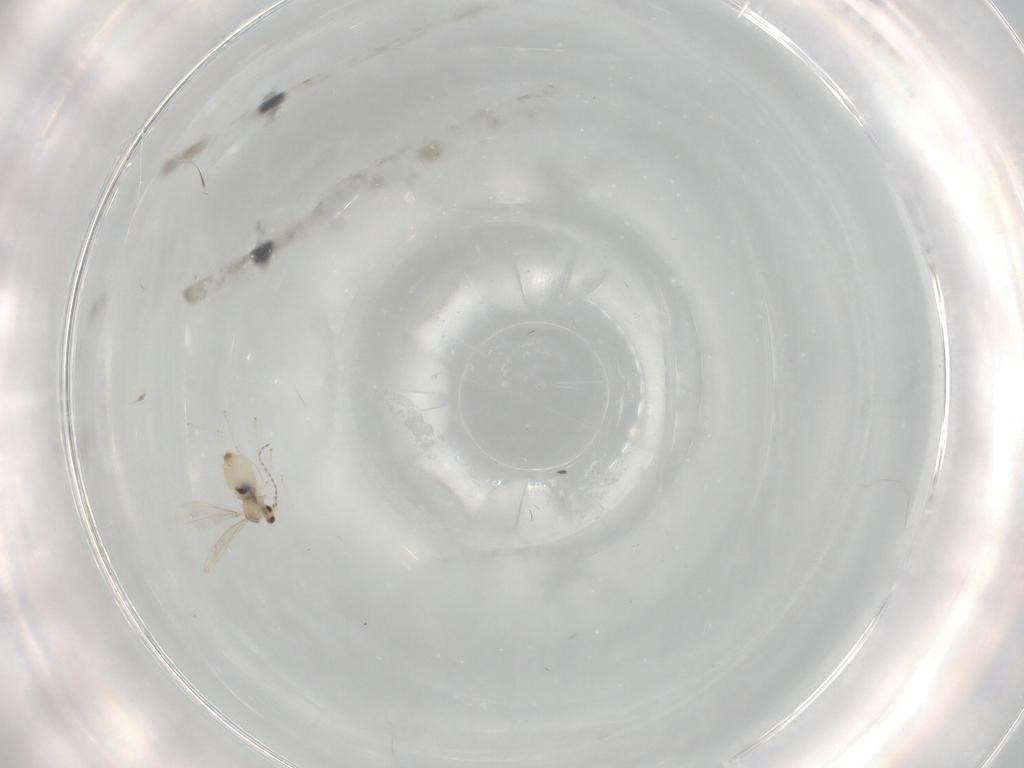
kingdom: Animalia
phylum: Arthropoda
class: Insecta
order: Diptera
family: Cecidomyiidae
